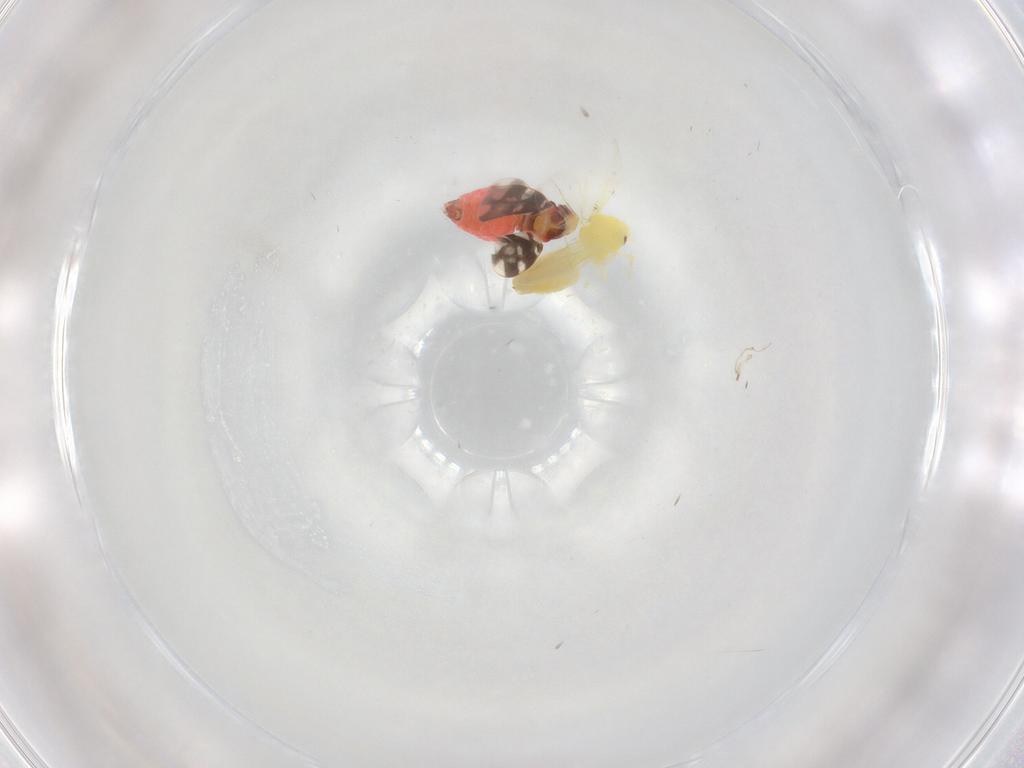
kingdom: Animalia
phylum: Arthropoda
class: Insecta
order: Hemiptera
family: Aleyrodidae
